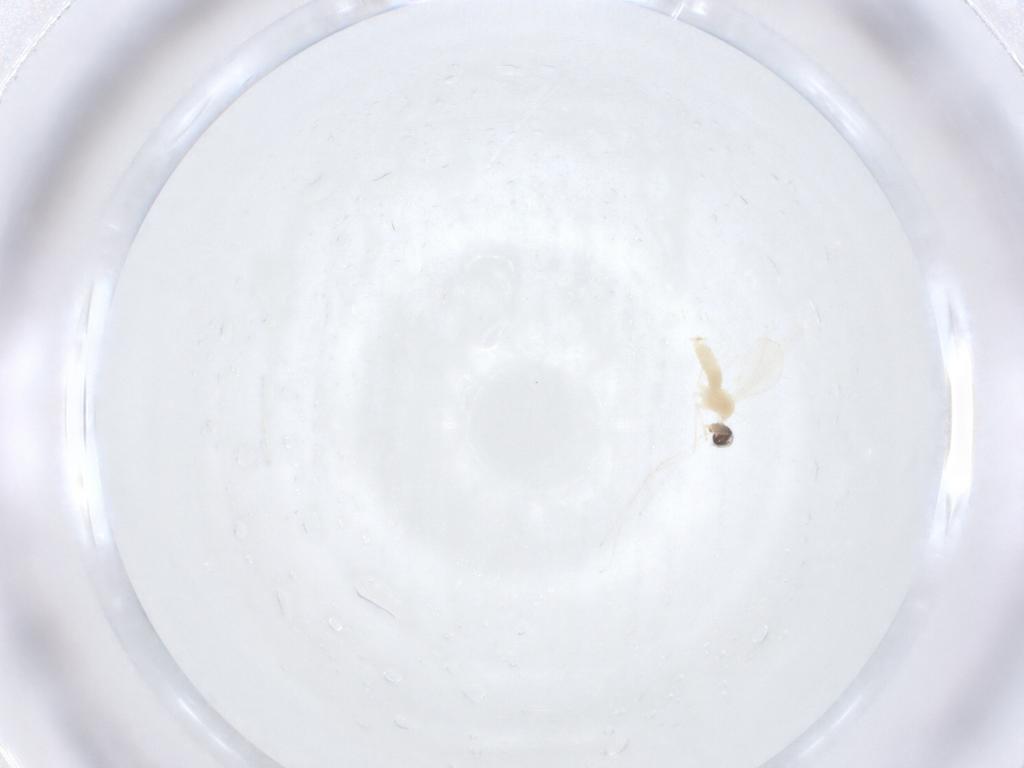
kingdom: Animalia
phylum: Arthropoda
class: Insecta
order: Diptera
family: Cecidomyiidae
